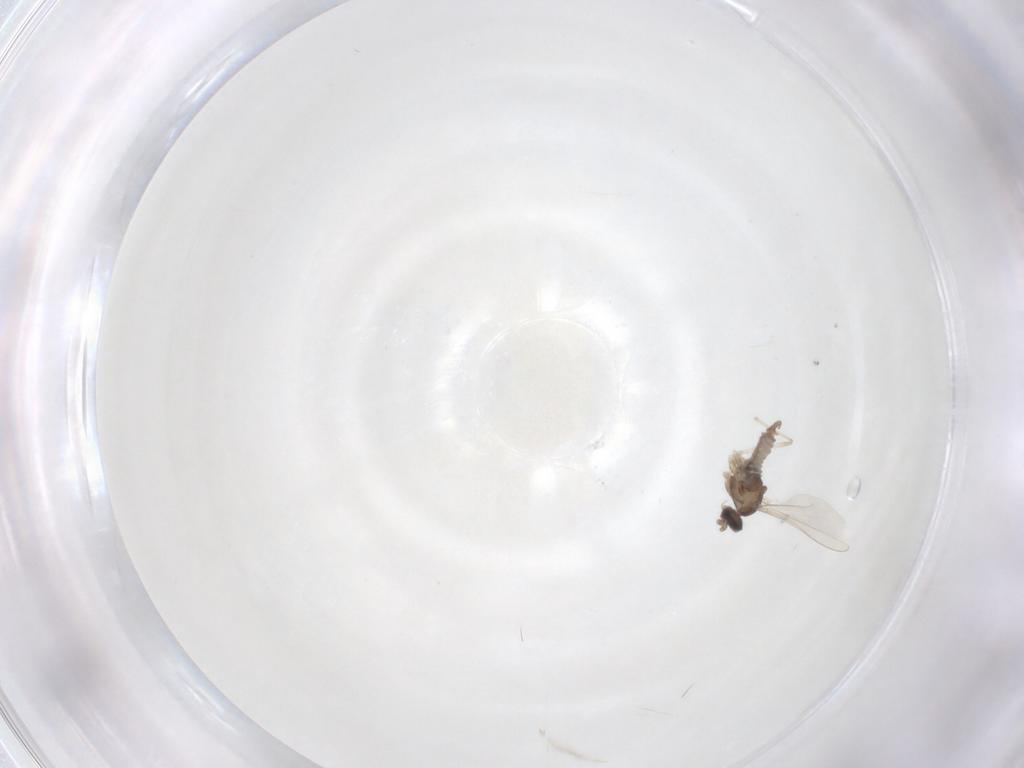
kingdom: Animalia
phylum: Arthropoda
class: Insecta
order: Diptera
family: Cecidomyiidae
